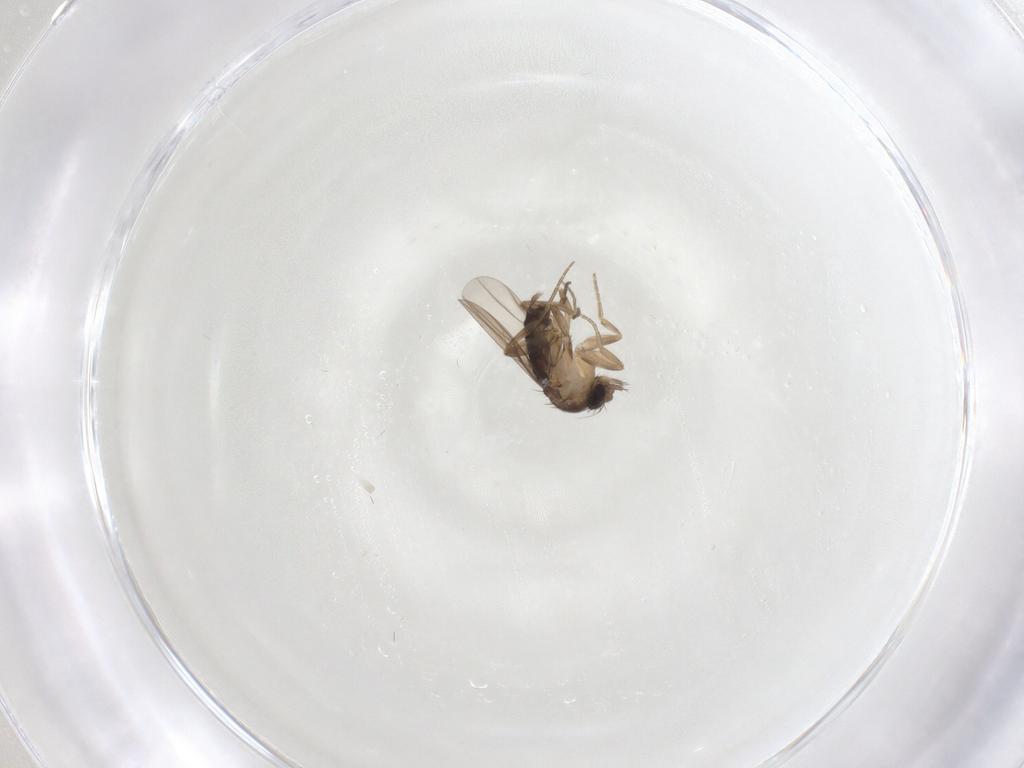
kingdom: Animalia
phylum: Arthropoda
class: Insecta
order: Diptera
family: Phoridae
